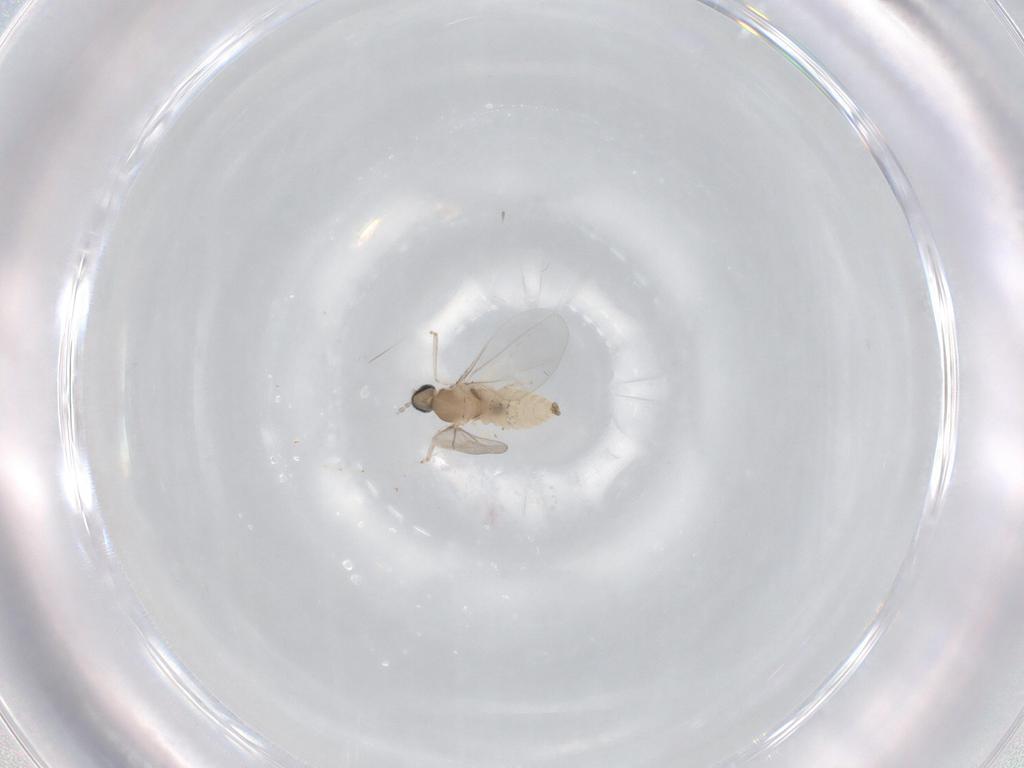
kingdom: Animalia
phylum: Arthropoda
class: Insecta
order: Diptera
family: Cecidomyiidae
